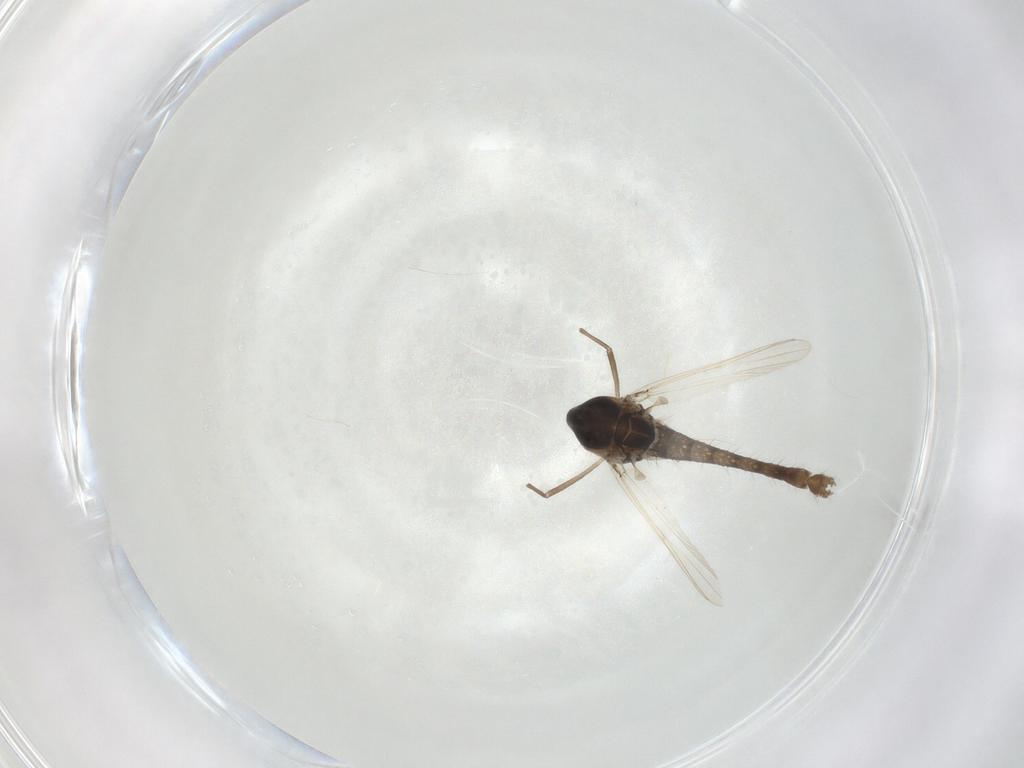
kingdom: Animalia
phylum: Arthropoda
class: Insecta
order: Diptera
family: Chironomidae
